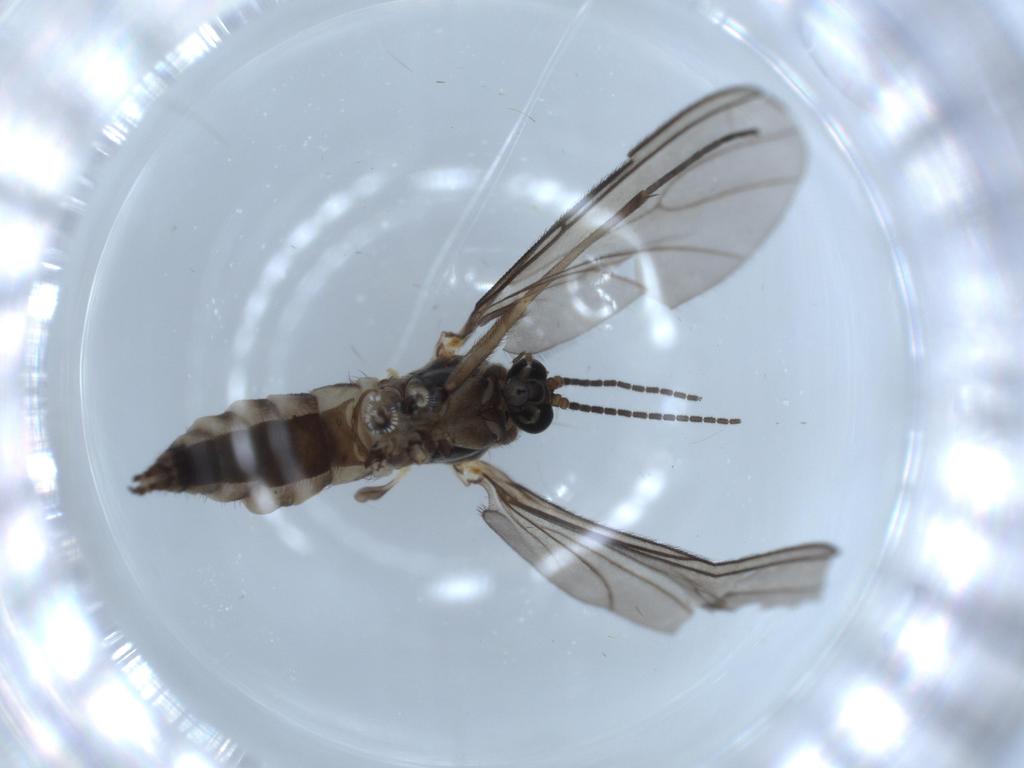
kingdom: Animalia
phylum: Arthropoda
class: Insecta
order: Diptera
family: Sciaridae
